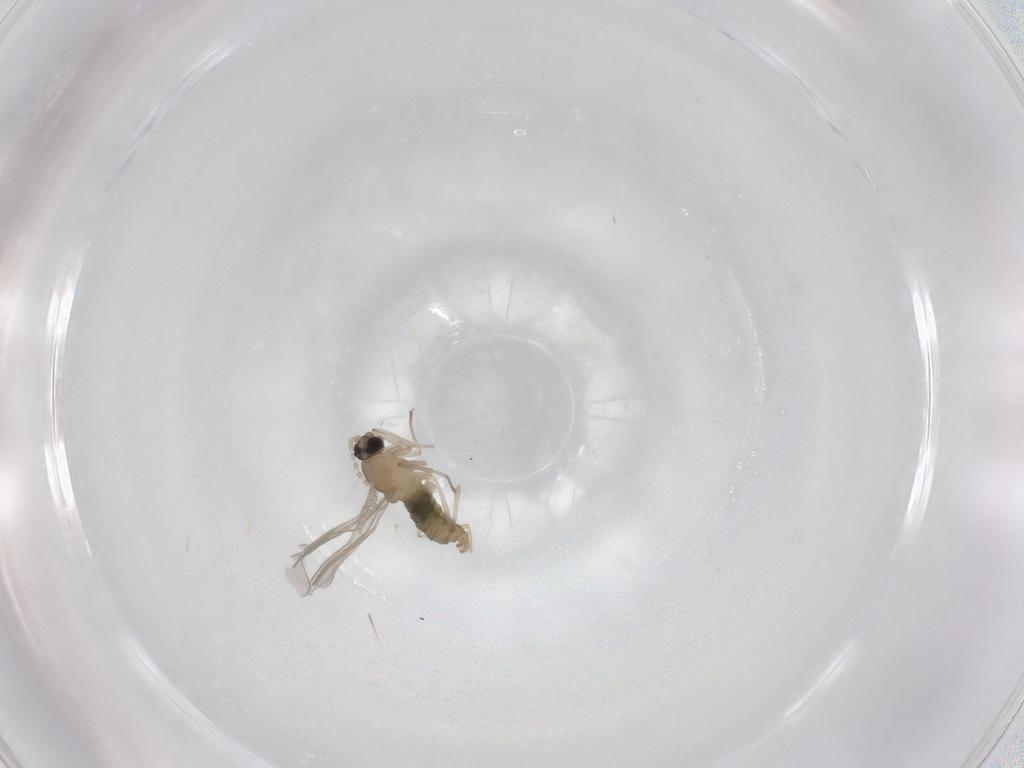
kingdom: Animalia
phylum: Arthropoda
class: Insecta
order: Diptera
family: Cecidomyiidae
